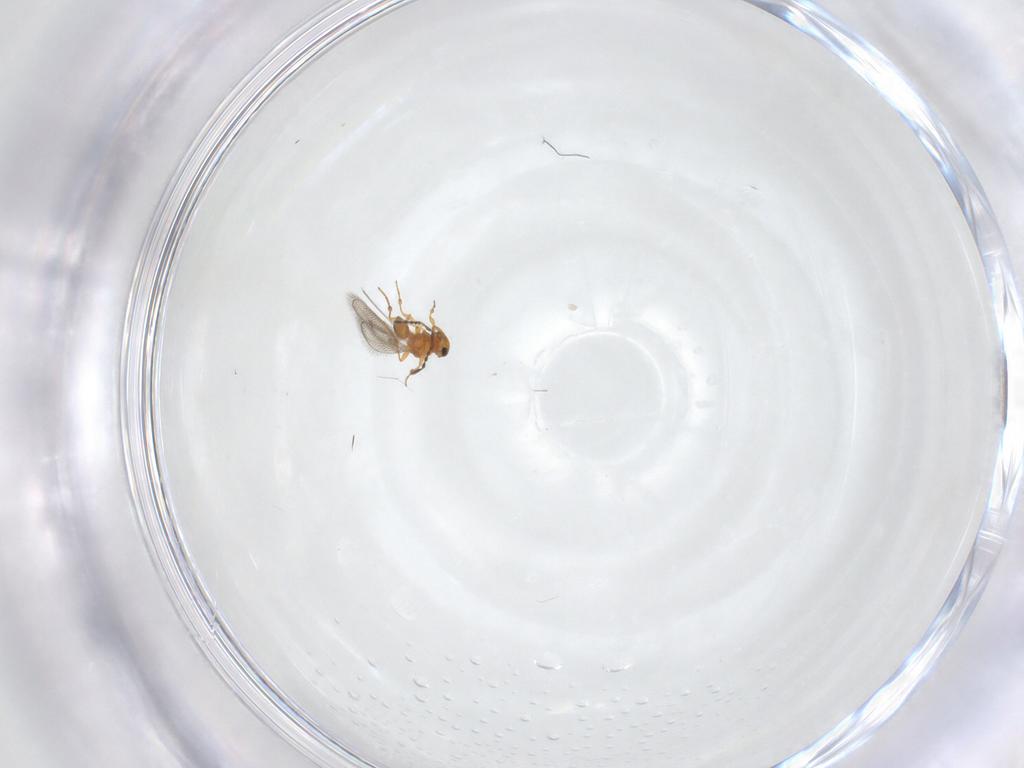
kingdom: Animalia
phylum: Arthropoda
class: Insecta
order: Hymenoptera
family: Platygastridae
